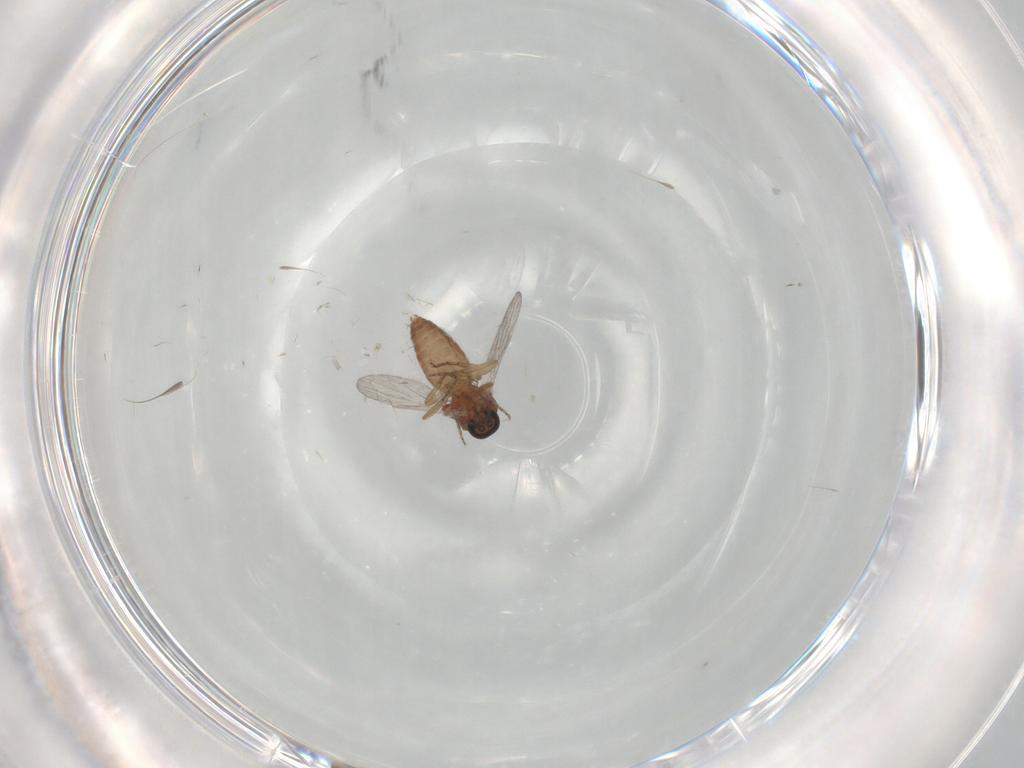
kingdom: Animalia
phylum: Arthropoda
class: Insecta
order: Diptera
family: Ceratopogonidae
